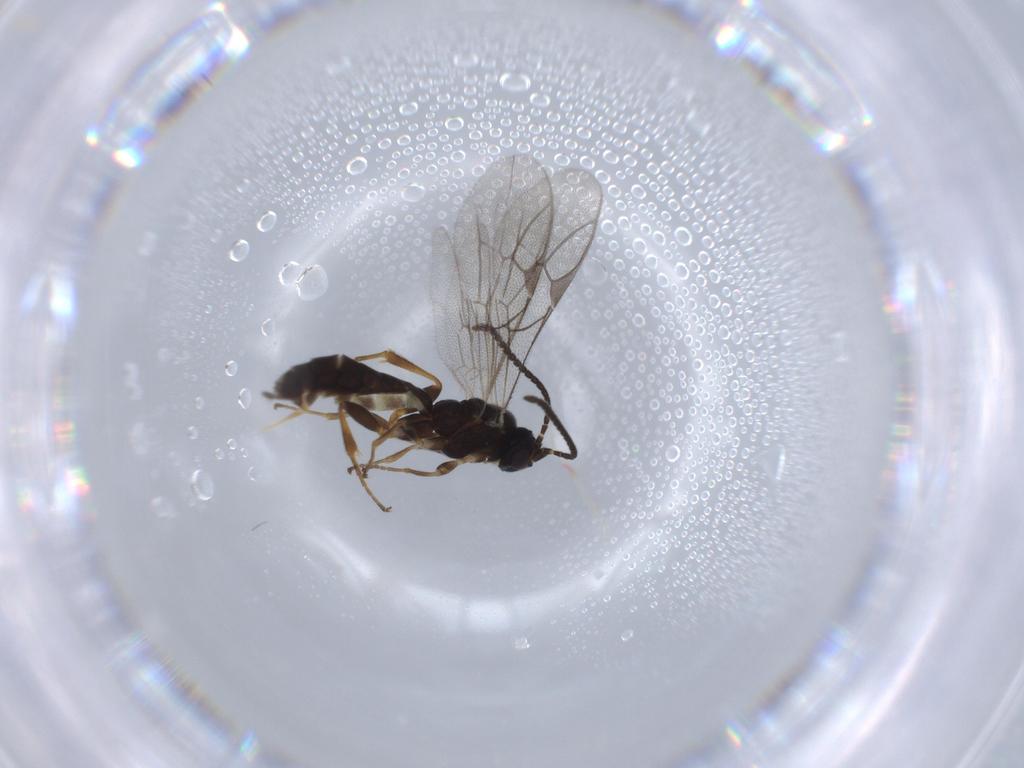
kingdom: Animalia
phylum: Arthropoda
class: Insecta
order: Hymenoptera
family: Ichneumonidae
